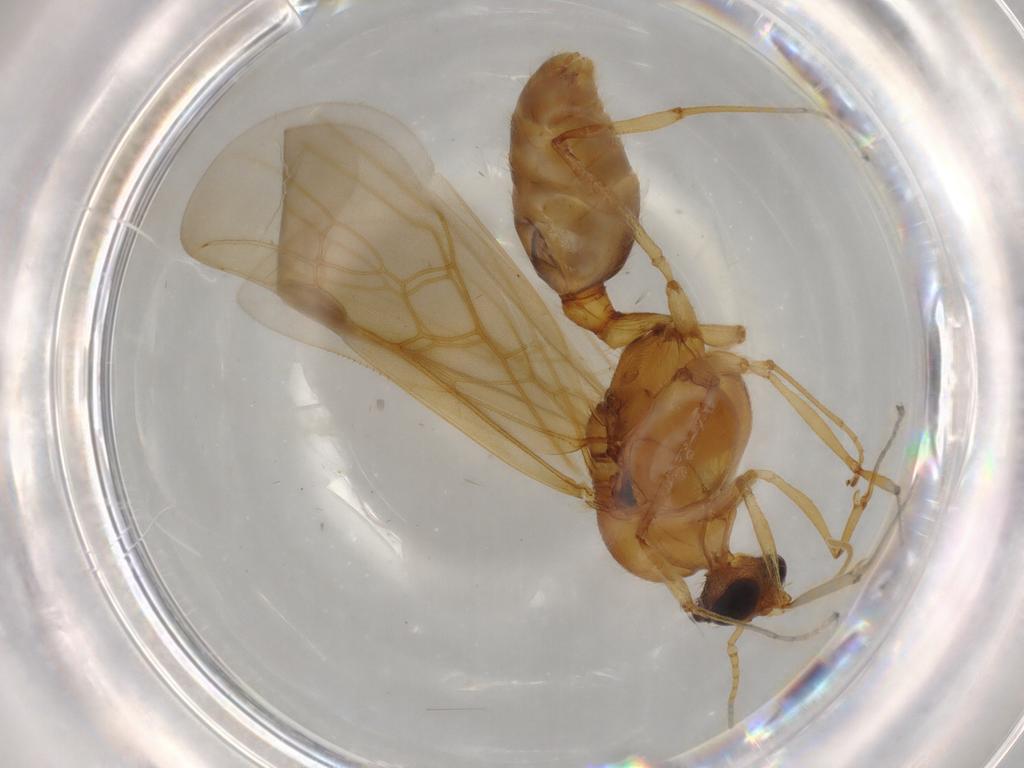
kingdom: Animalia
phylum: Arthropoda
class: Insecta
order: Hymenoptera
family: Formicidae
